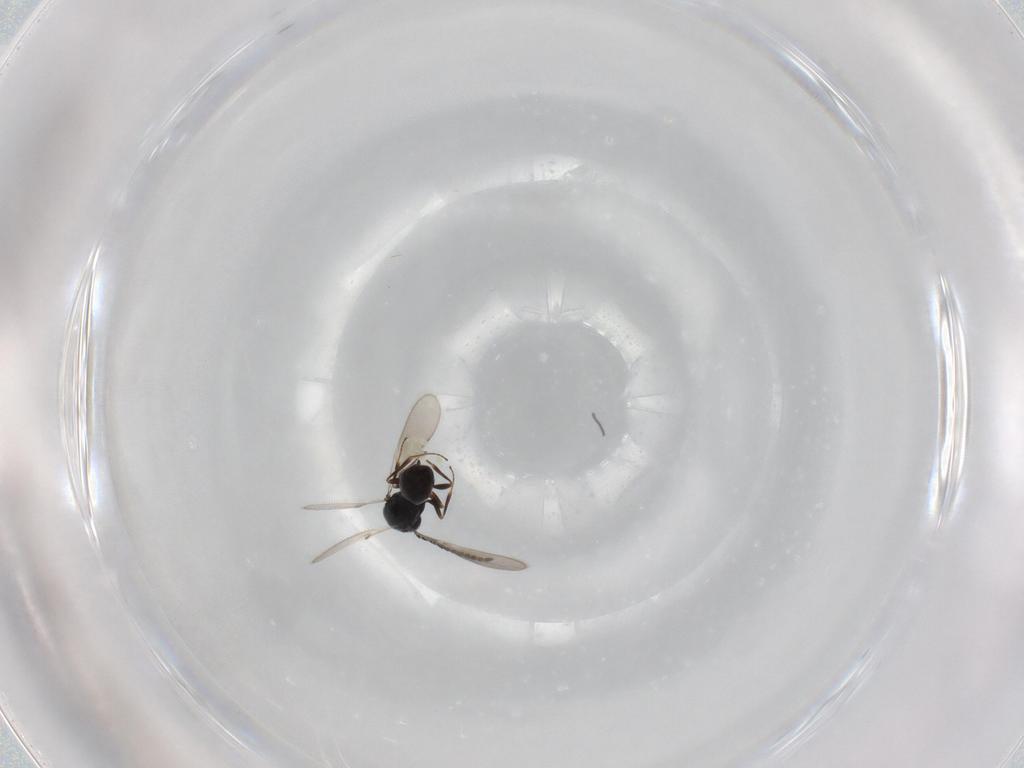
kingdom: Animalia
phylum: Arthropoda
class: Insecta
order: Hymenoptera
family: Scelionidae
